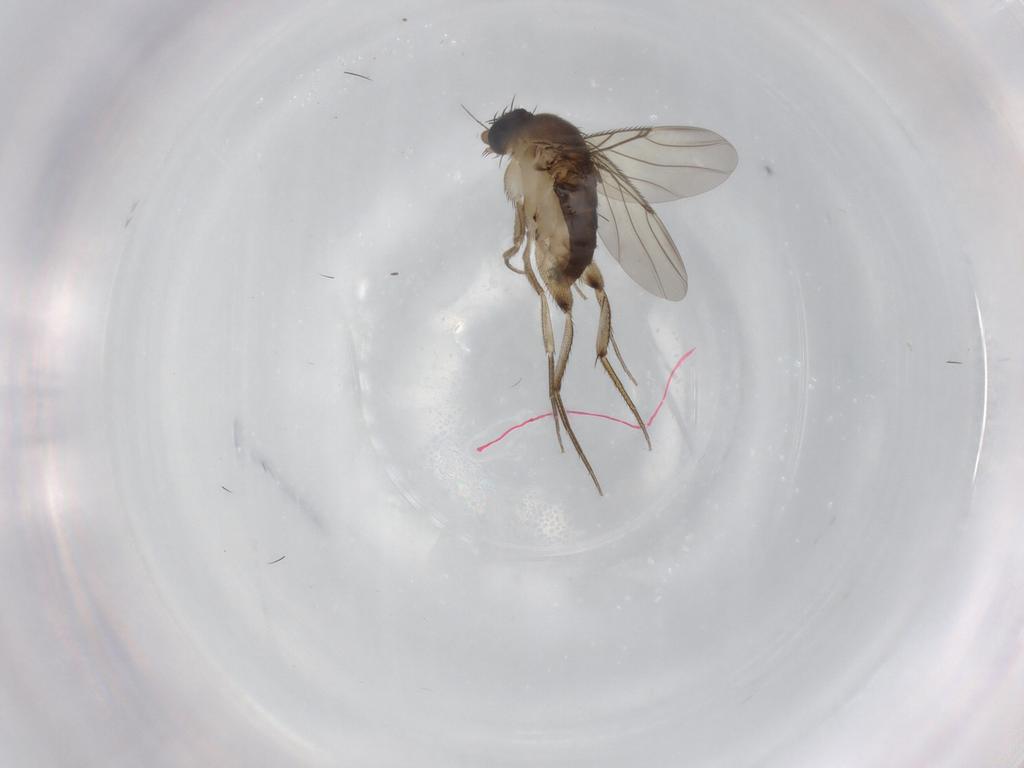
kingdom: Animalia
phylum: Arthropoda
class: Insecta
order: Diptera
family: Phoridae
